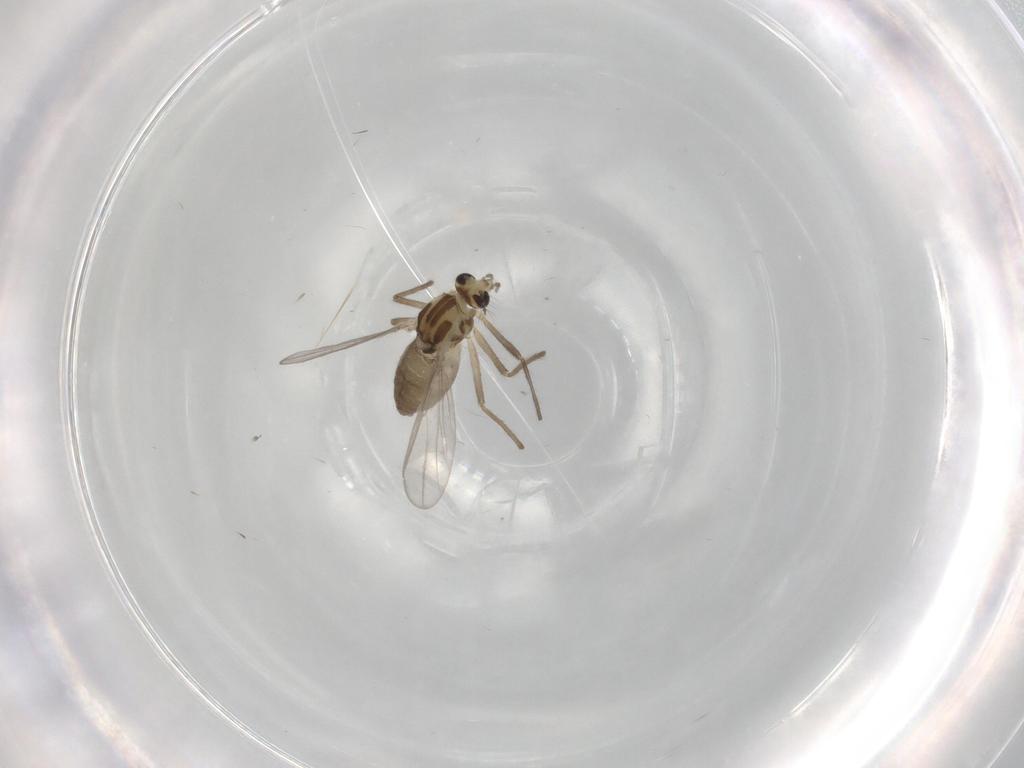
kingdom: Animalia
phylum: Arthropoda
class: Insecta
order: Diptera
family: Chironomidae
